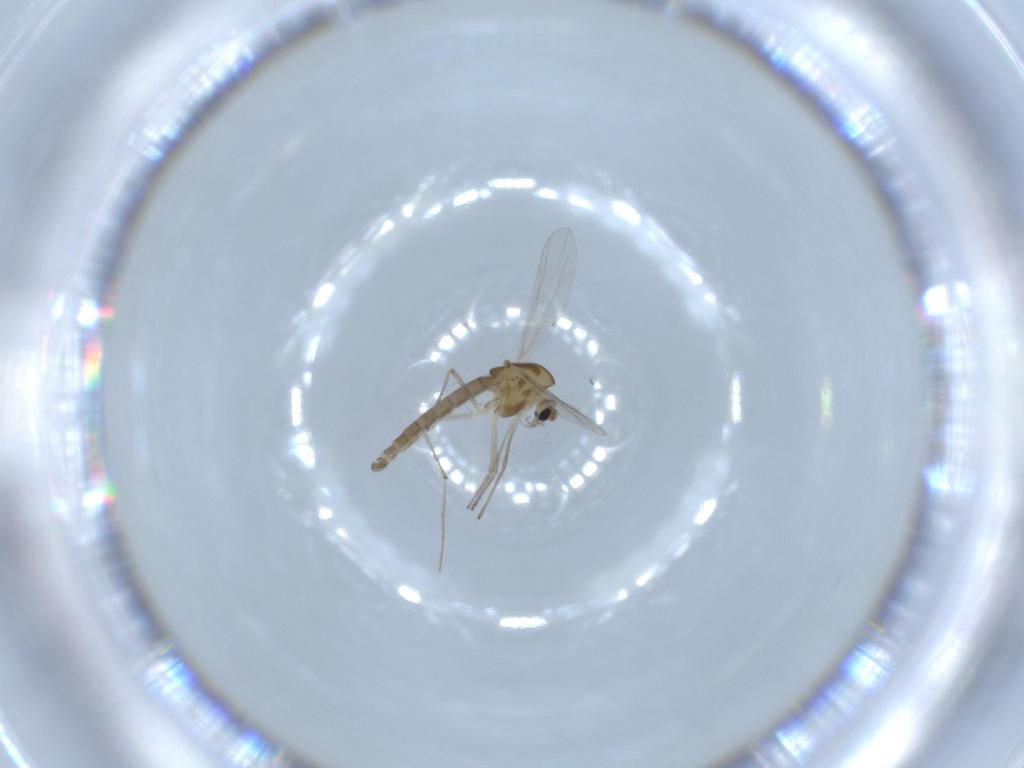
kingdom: Animalia
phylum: Arthropoda
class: Insecta
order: Diptera
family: Chironomidae
